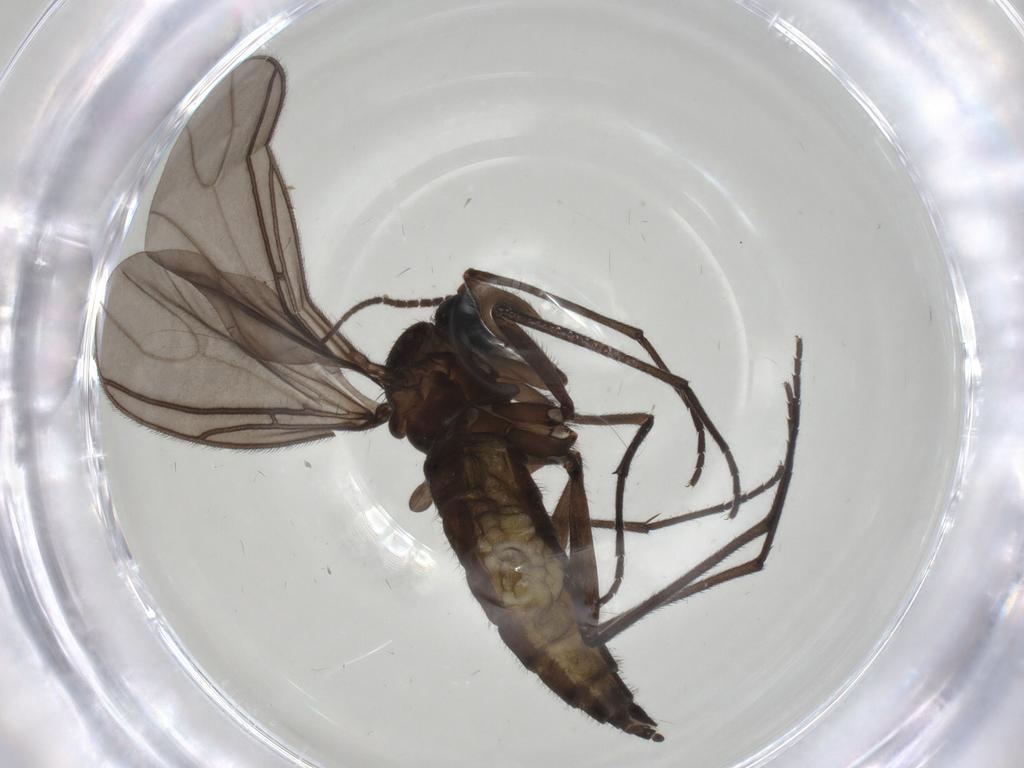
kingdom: Animalia
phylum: Arthropoda
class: Insecta
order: Diptera
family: Sciaridae
